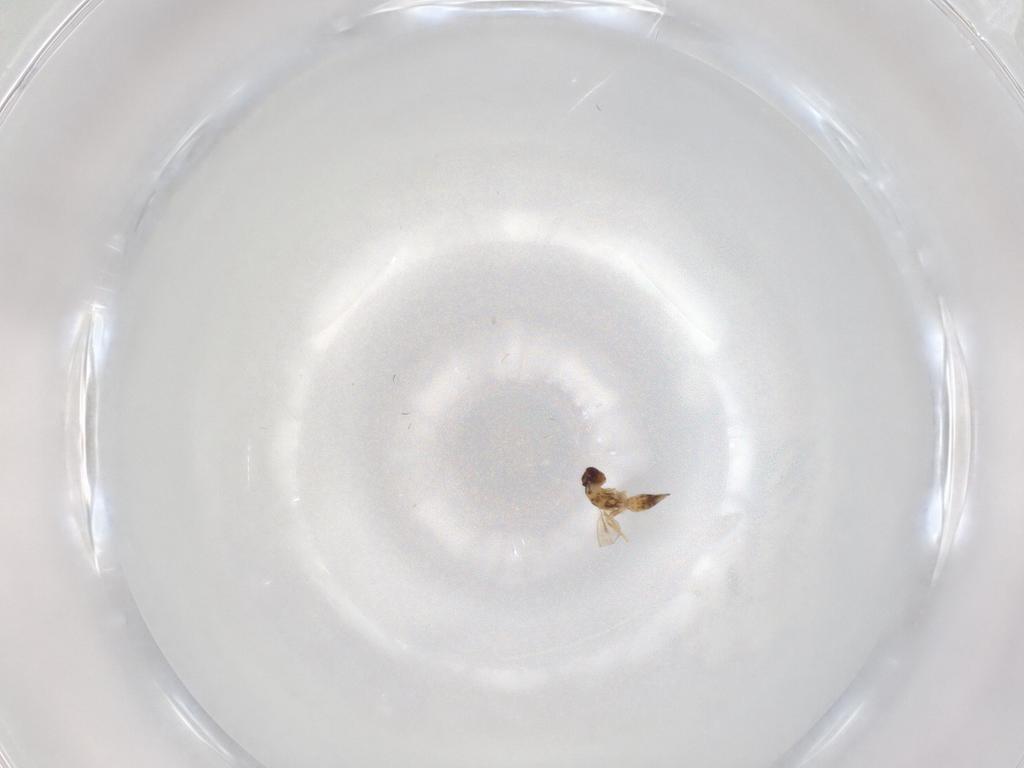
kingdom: Animalia
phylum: Arthropoda
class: Insecta
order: Hymenoptera
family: Mymaridae
